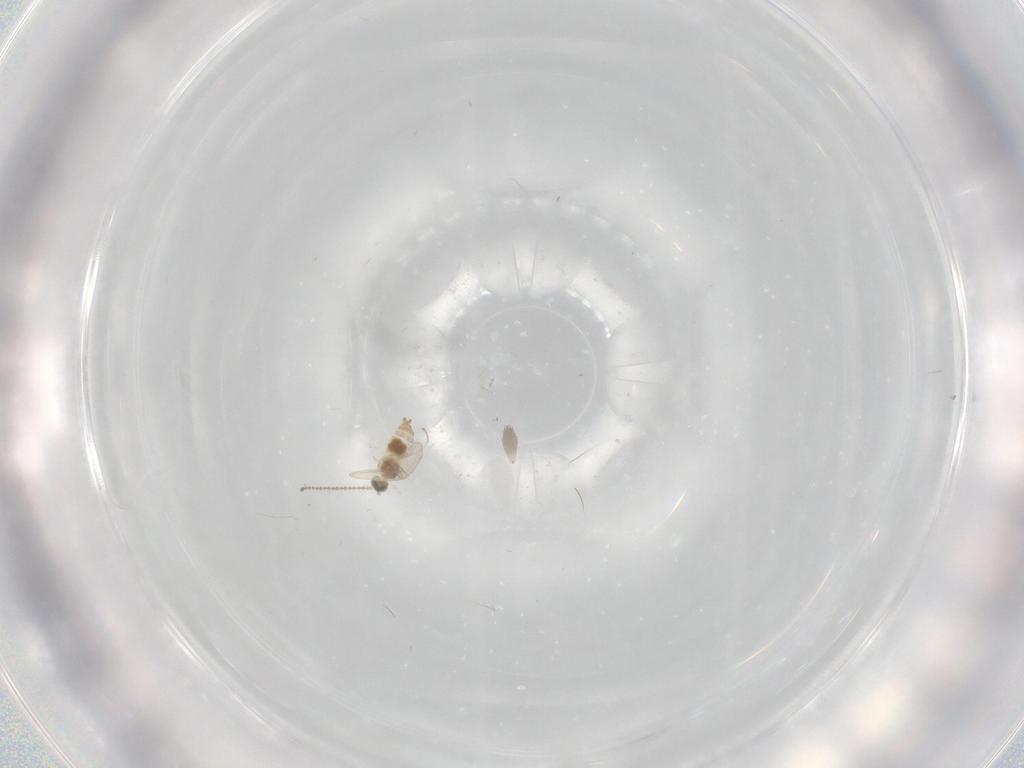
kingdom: Animalia
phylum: Arthropoda
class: Insecta
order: Diptera
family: Cecidomyiidae
